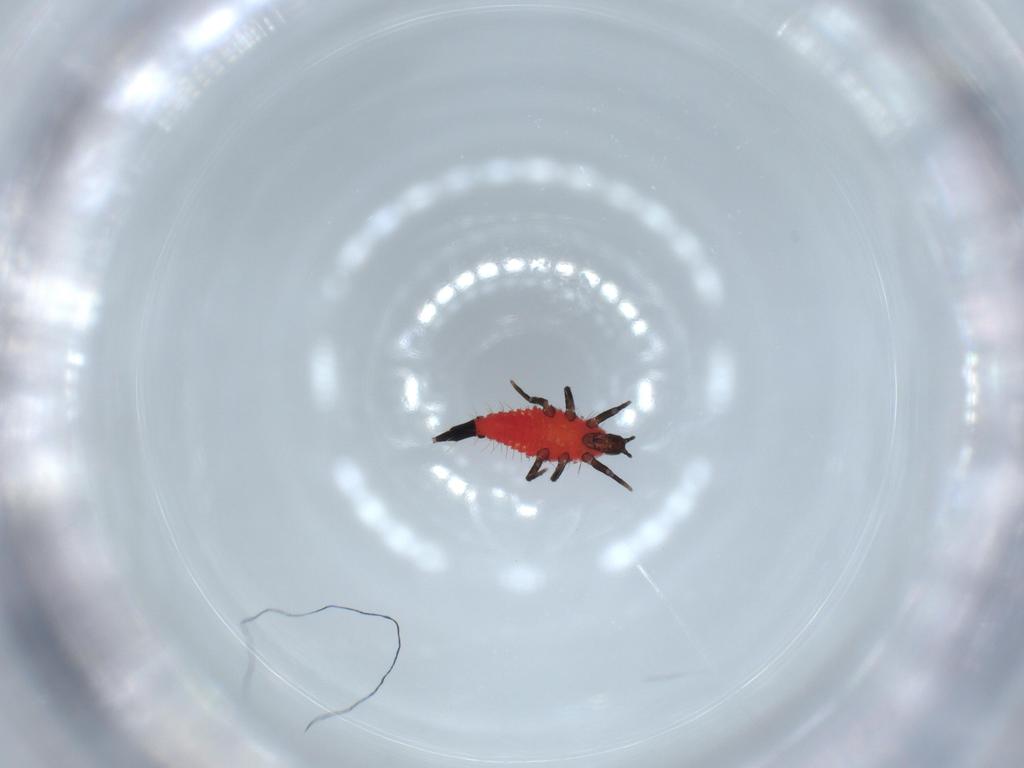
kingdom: Animalia
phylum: Arthropoda
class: Insecta
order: Thysanoptera
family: Phlaeothripidae
